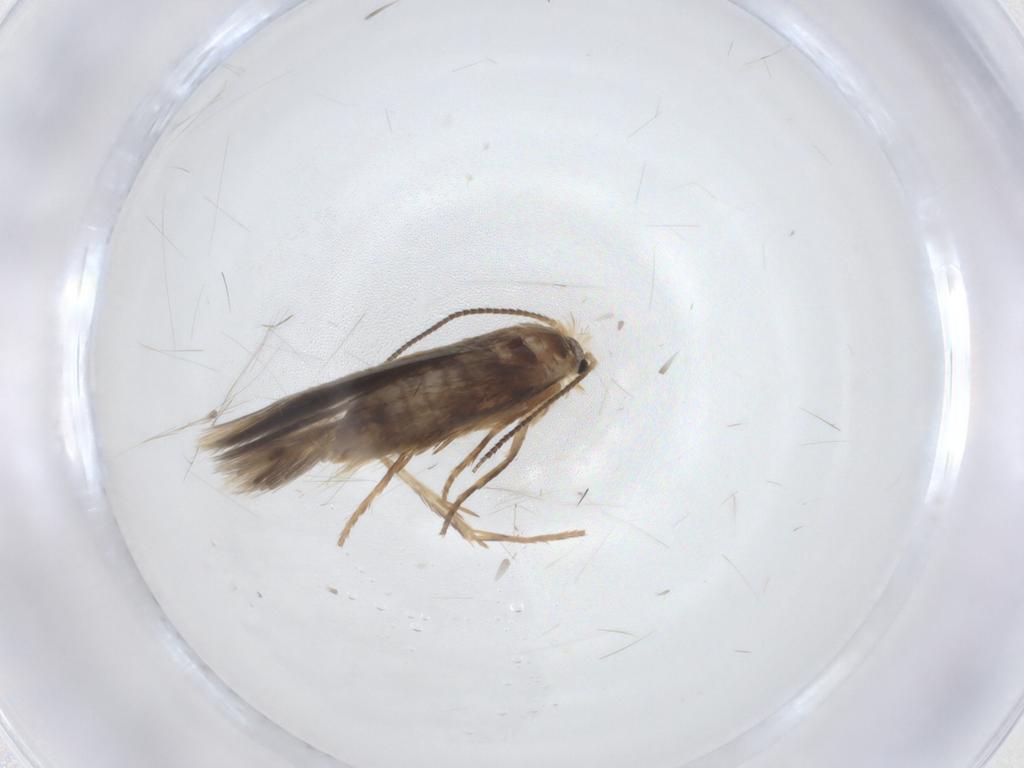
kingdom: Animalia
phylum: Arthropoda
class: Insecta
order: Lepidoptera
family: Nepticulidae
